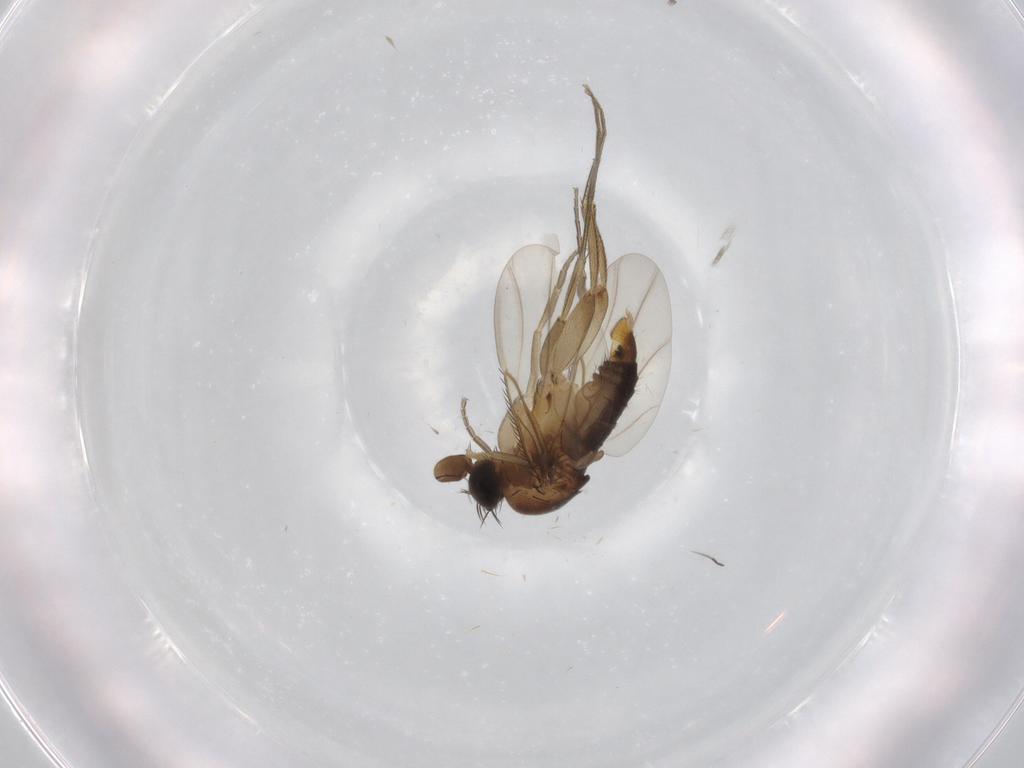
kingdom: Animalia
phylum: Arthropoda
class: Insecta
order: Diptera
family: Phoridae
